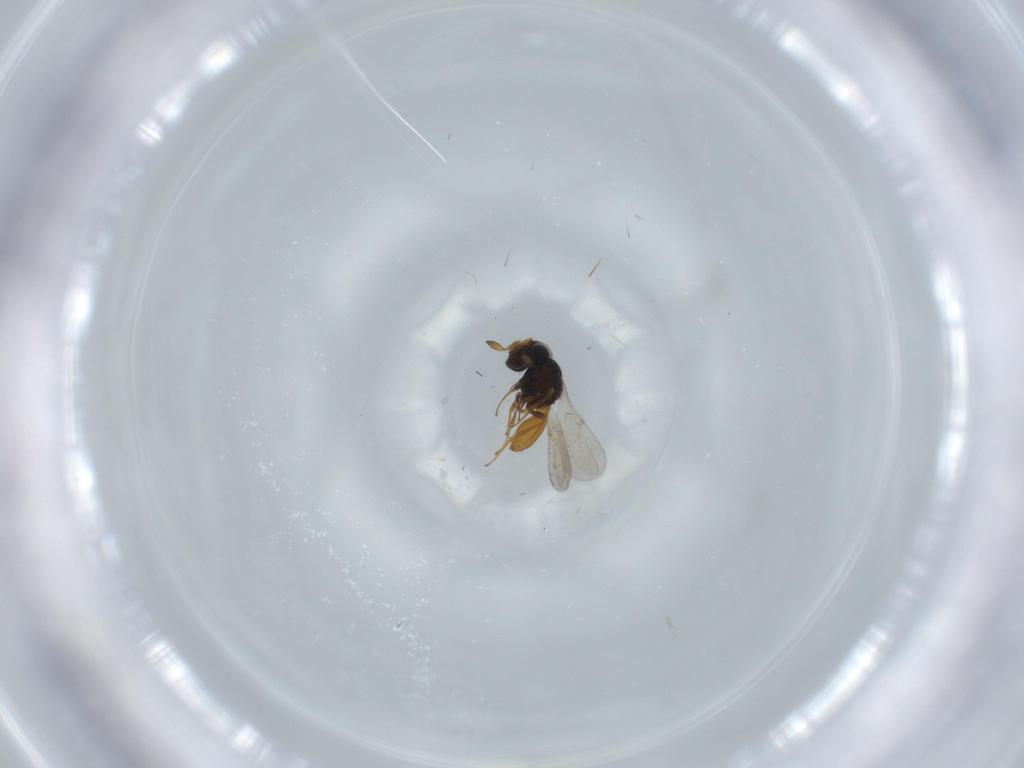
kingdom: Animalia
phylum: Arthropoda
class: Insecta
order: Hymenoptera
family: Scelionidae
